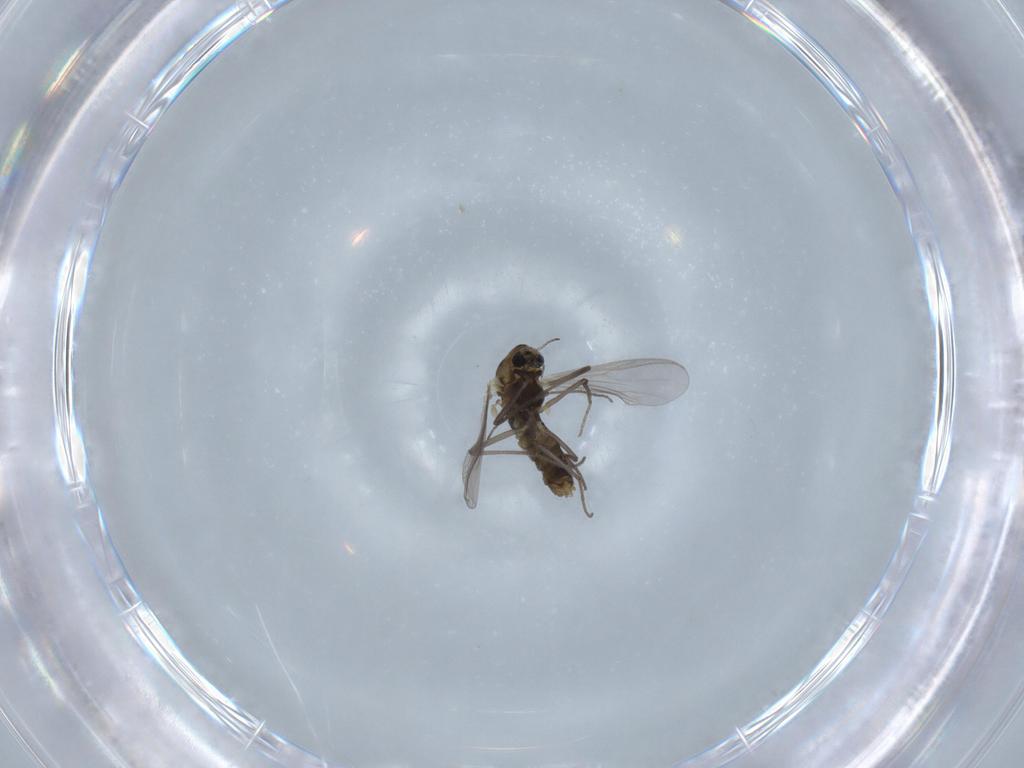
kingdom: Animalia
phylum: Arthropoda
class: Insecta
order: Diptera
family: Chironomidae
